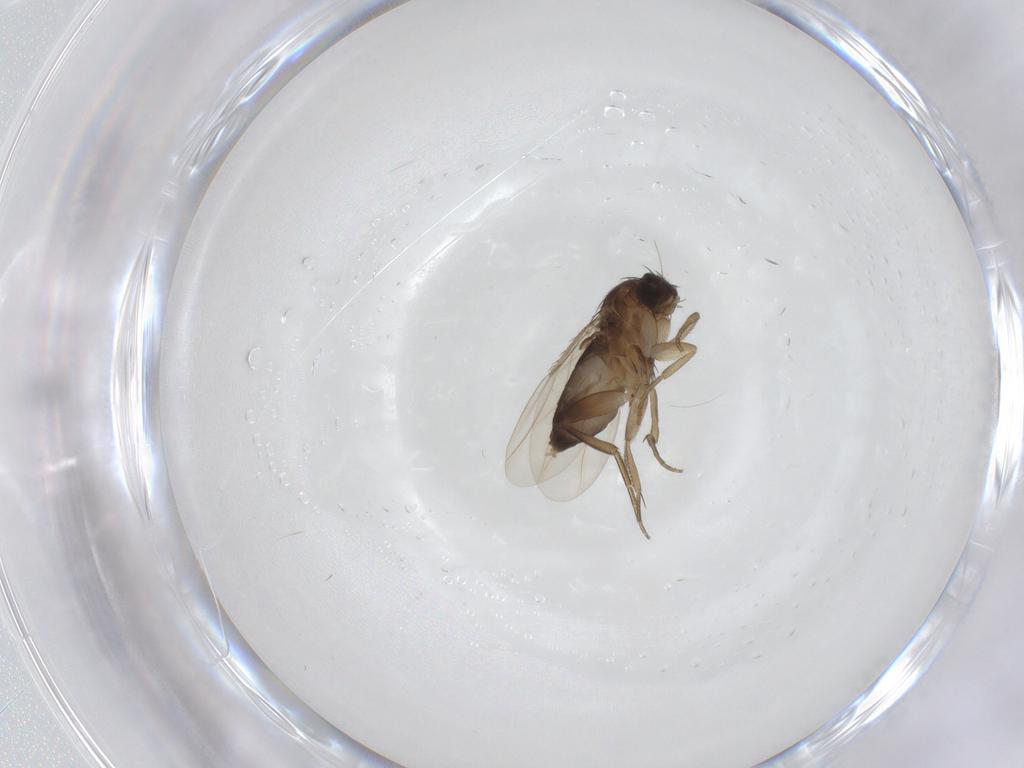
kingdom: Animalia
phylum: Arthropoda
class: Insecta
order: Diptera
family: Phoridae
